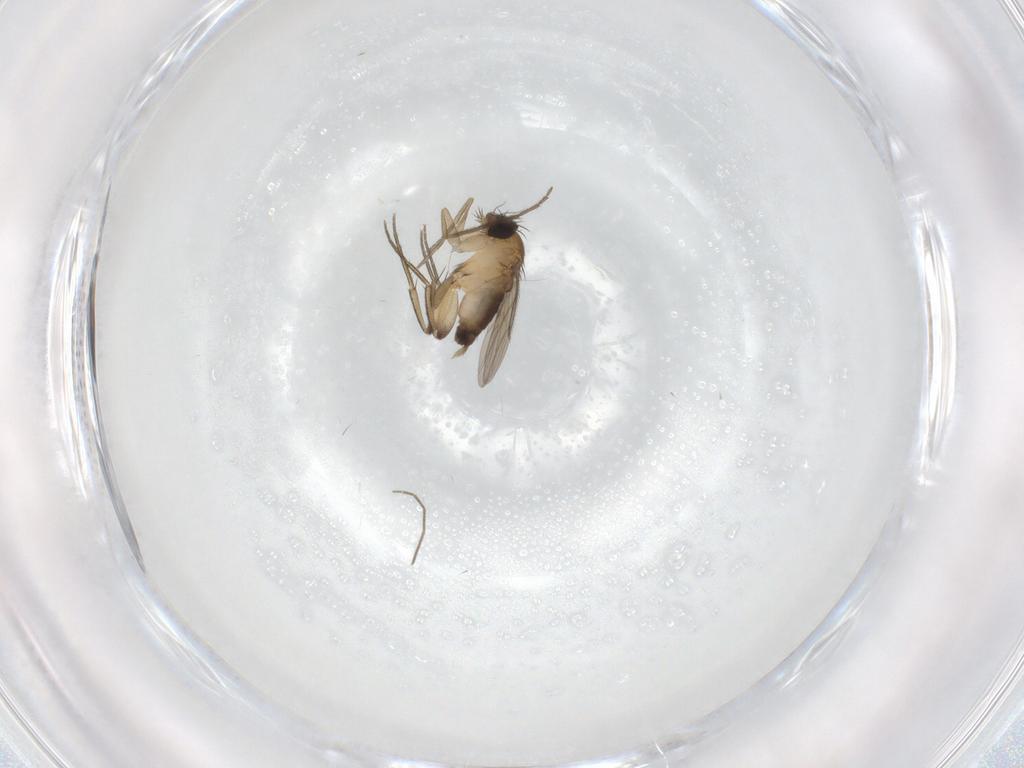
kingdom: Animalia
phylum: Arthropoda
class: Insecta
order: Diptera
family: Phoridae
